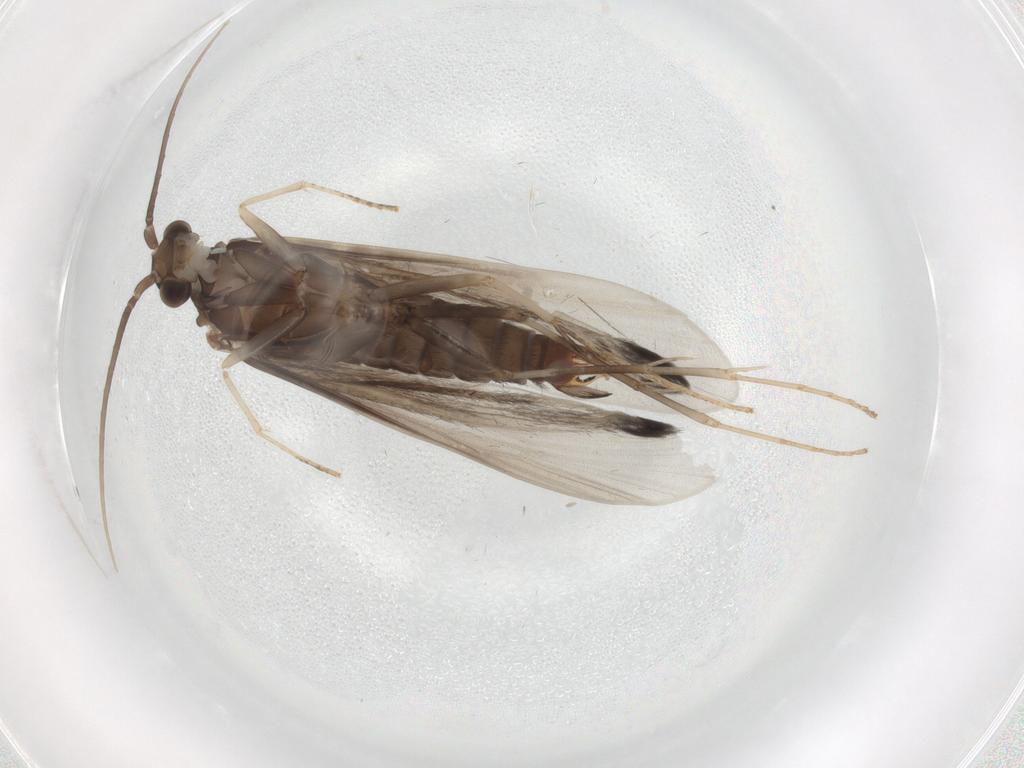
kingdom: Animalia
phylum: Arthropoda
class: Insecta
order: Trichoptera
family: Xiphocentronidae
